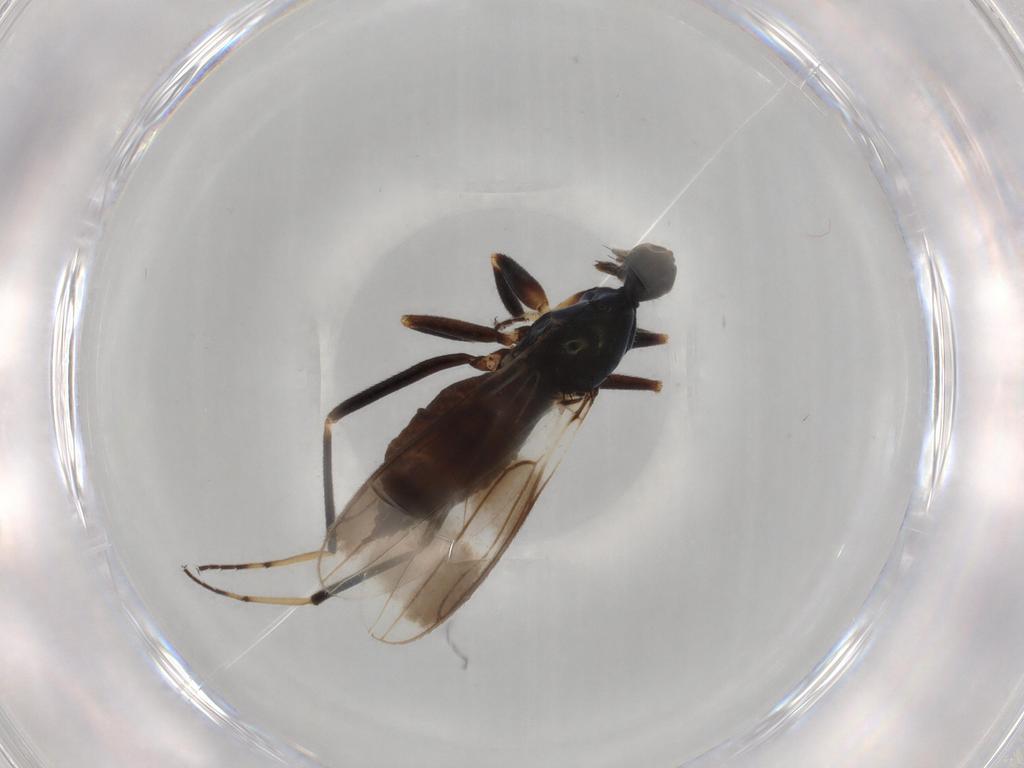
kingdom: Animalia
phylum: Arthropoda
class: Insecta
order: Diptera
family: Hybotidae
